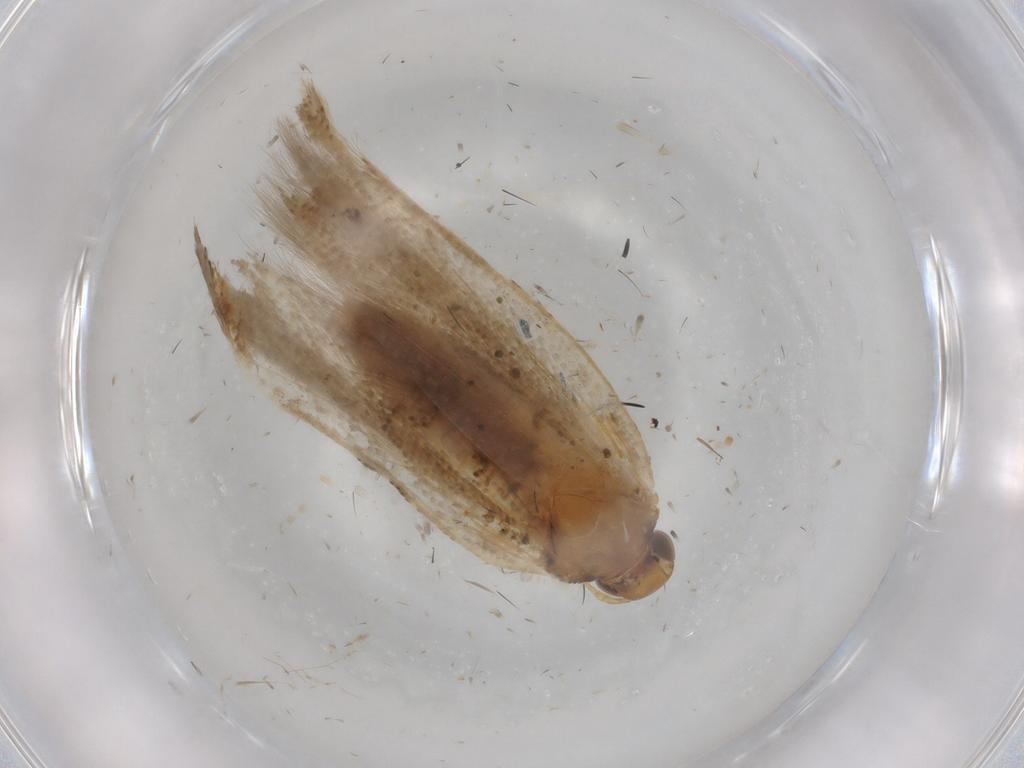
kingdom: Animalia
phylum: Arthropoda
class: Insecta
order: Lepidoptera
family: Gelechiidae
